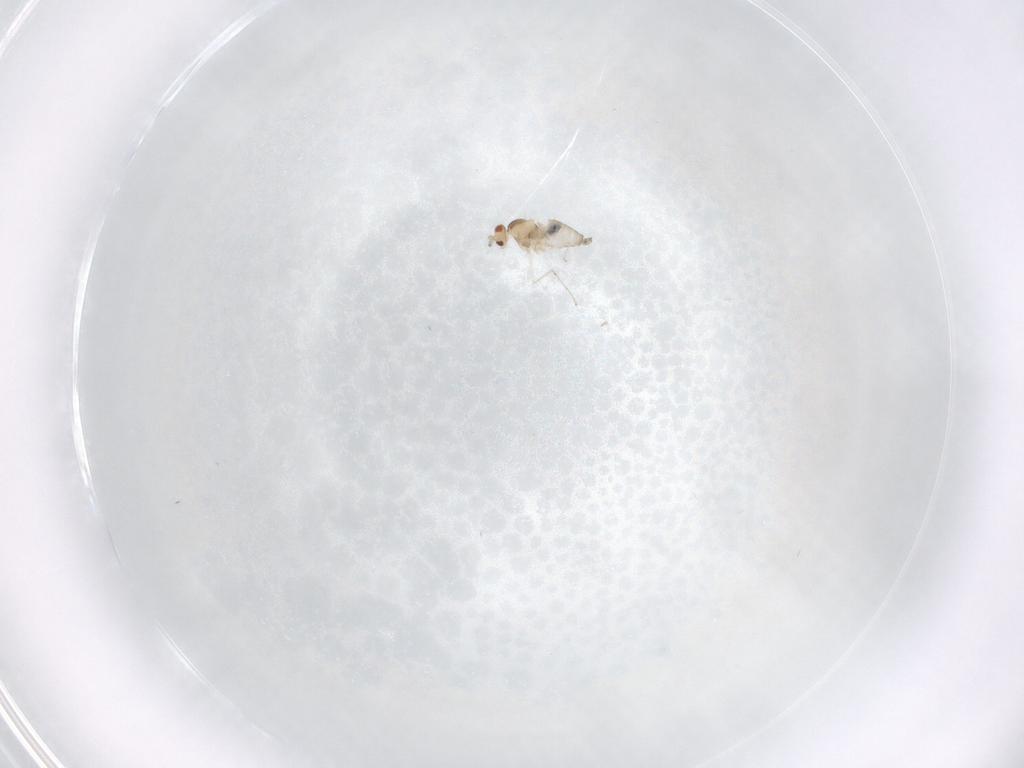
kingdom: Animalia
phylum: Arthropoda
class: Insecta
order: Diptera
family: Cecidomyiidae
